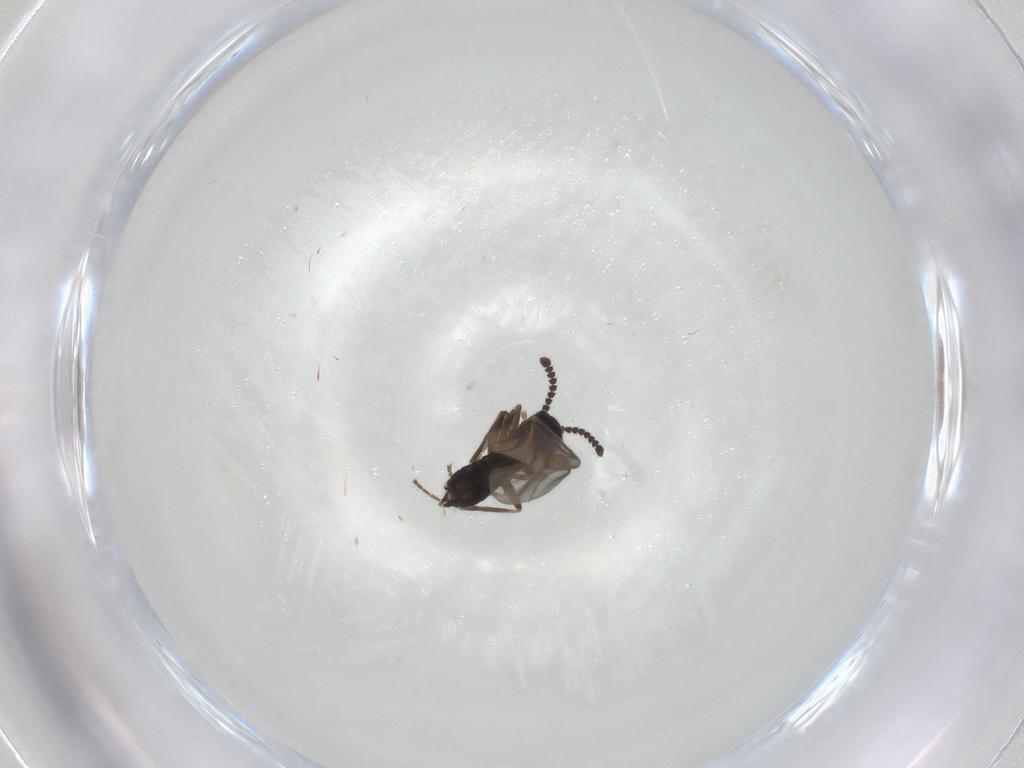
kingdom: Animalia
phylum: Arthropoda
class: Insecta
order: Diptera
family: Scatopsidae
